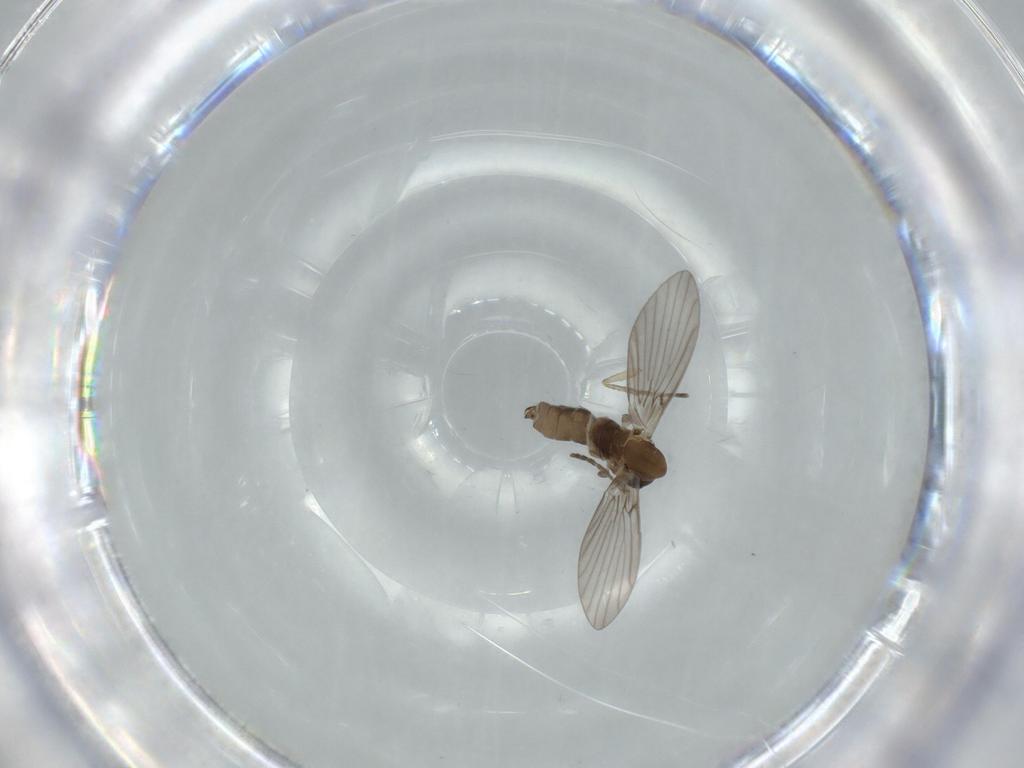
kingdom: Animalia
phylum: Arthropoda
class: Insecta
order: Diptera
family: Psychodidae
